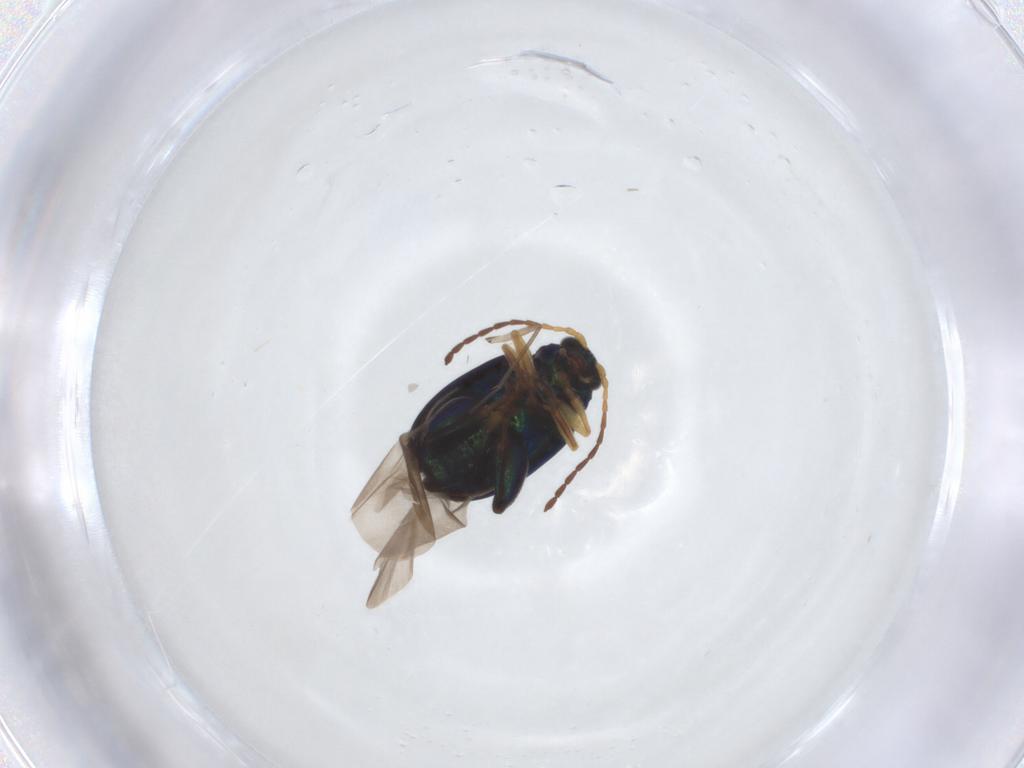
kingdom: Animalia
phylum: Arthropoda
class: Insecta
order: Coleoptera
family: Chrysomelidae
